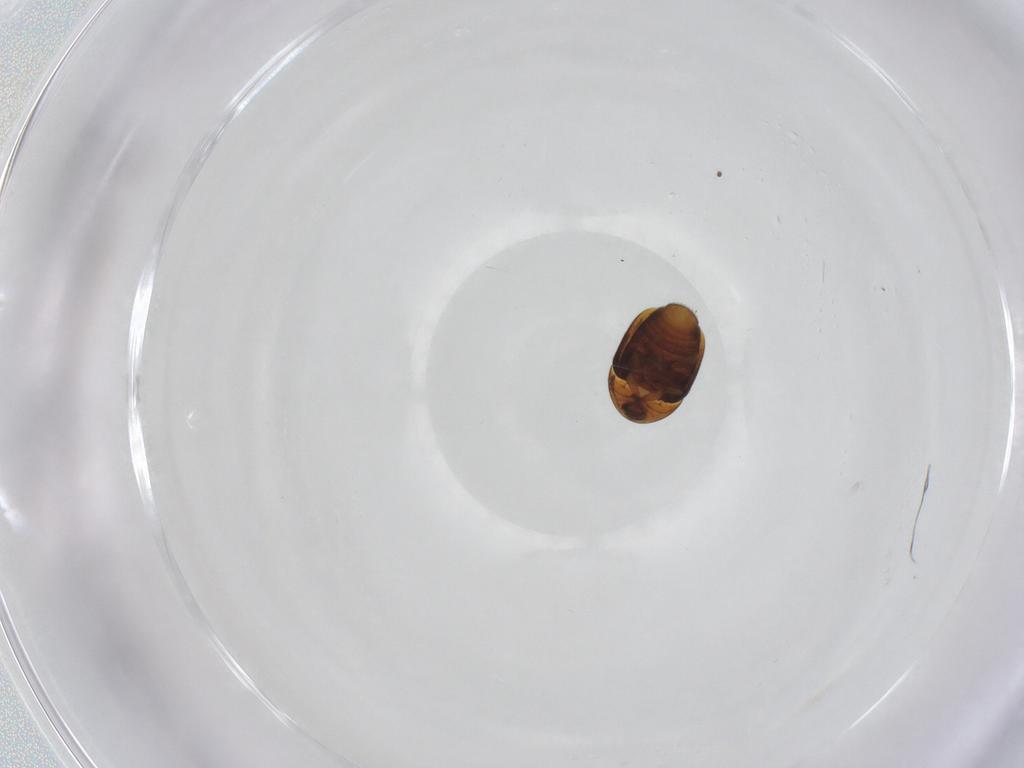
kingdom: Animalia
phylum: Arthropoda
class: Insecta
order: Coleoptera
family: Corylophidae
